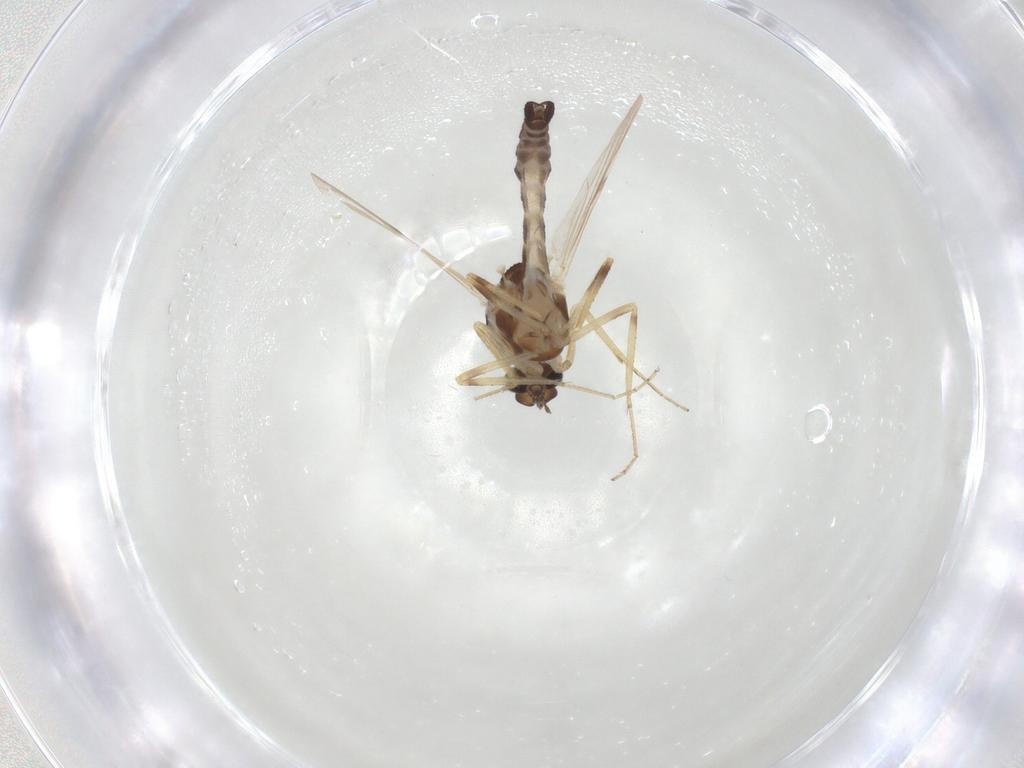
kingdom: Animalia
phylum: Arthropoda
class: Insecta
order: Diptera
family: Ceratopogonidae
